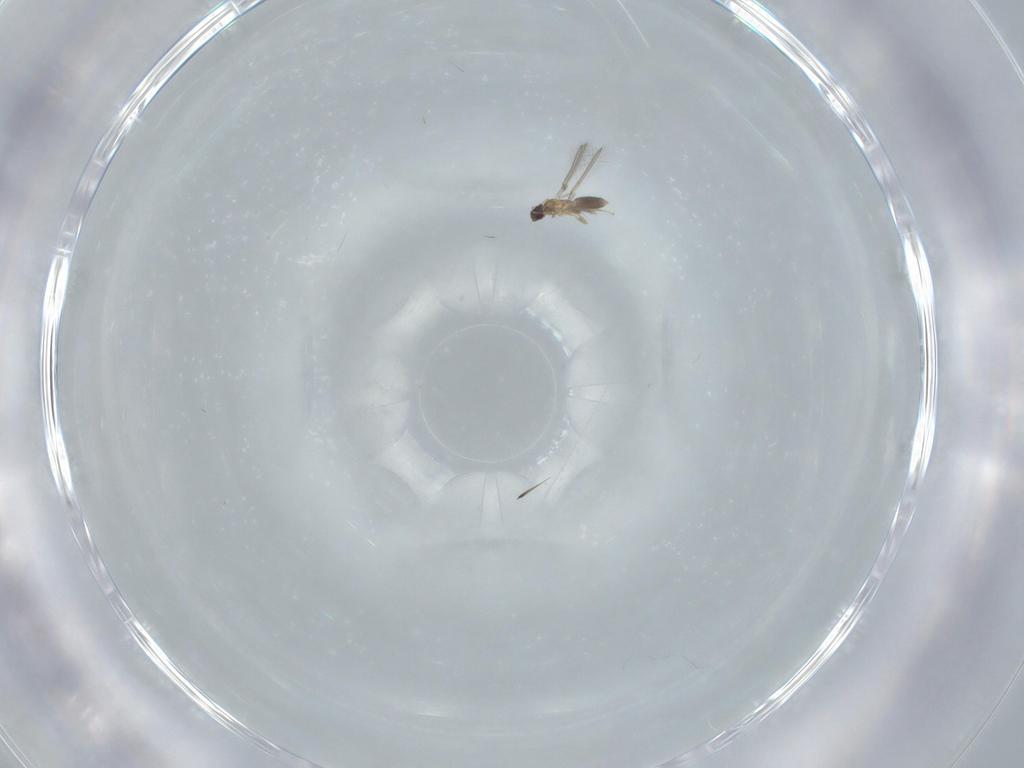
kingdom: Animalia
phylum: Arthropoda
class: Insecta
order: Hymenoptera
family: Mymaridae
